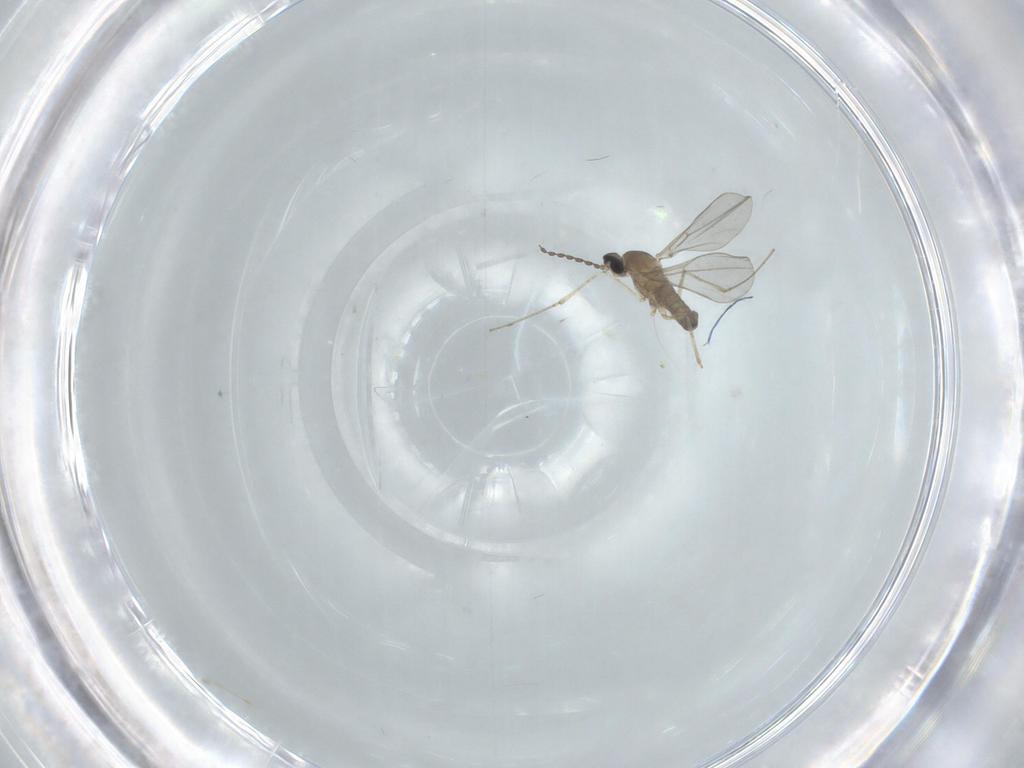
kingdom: Animalia
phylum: Arthropoda
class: Insecta
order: Diptera
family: Cecidomyiidae
